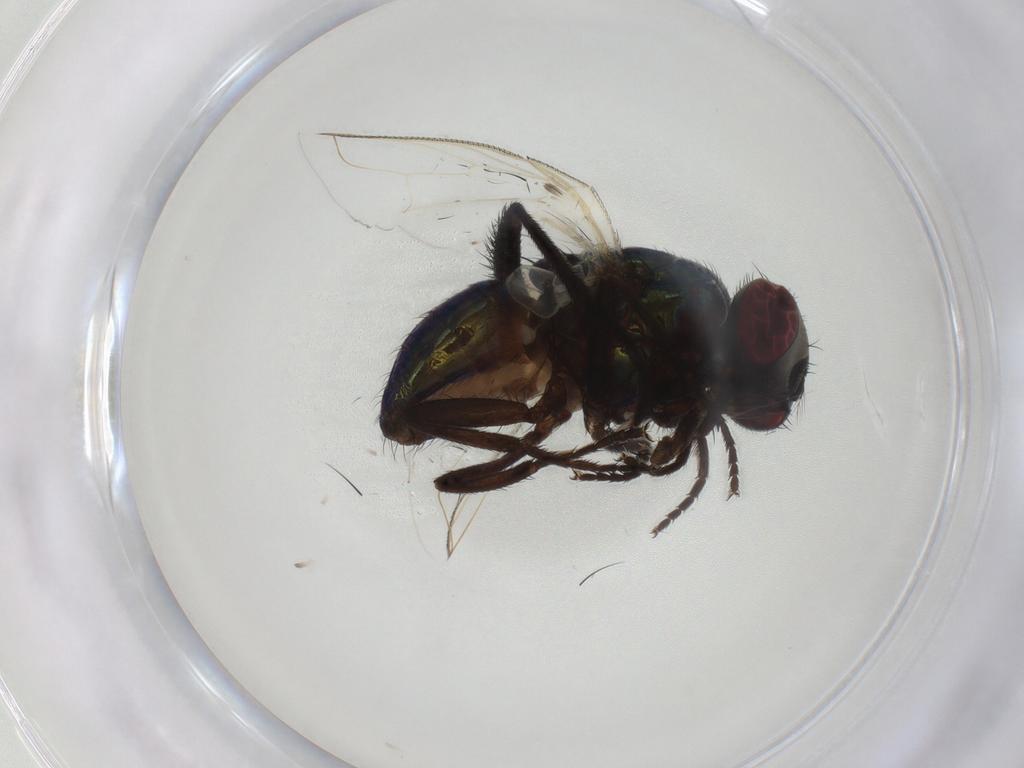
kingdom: Animalia
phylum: Arthropoda
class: Insecta
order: Diptera
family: Muscidae
